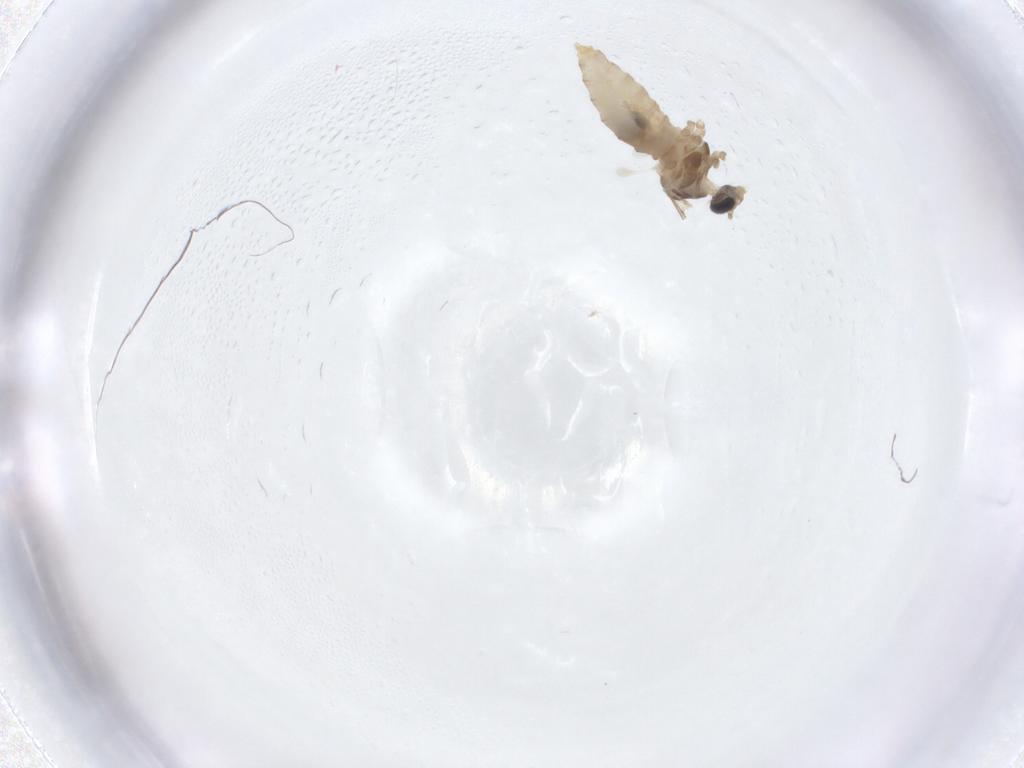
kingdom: Animalia
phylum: Arthropoda
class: Insecta
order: Diptera
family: Cecidomyiidae
